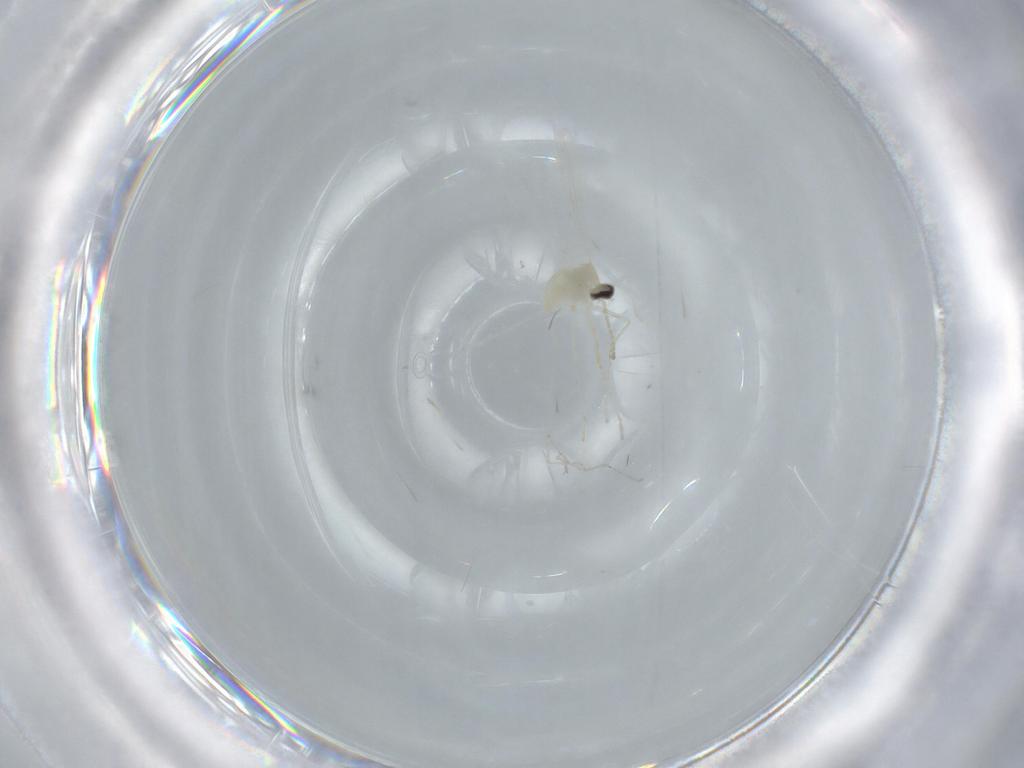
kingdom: Animalia
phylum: Arthropoda
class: Insecta
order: Diptera
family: Cecidomyiidae
